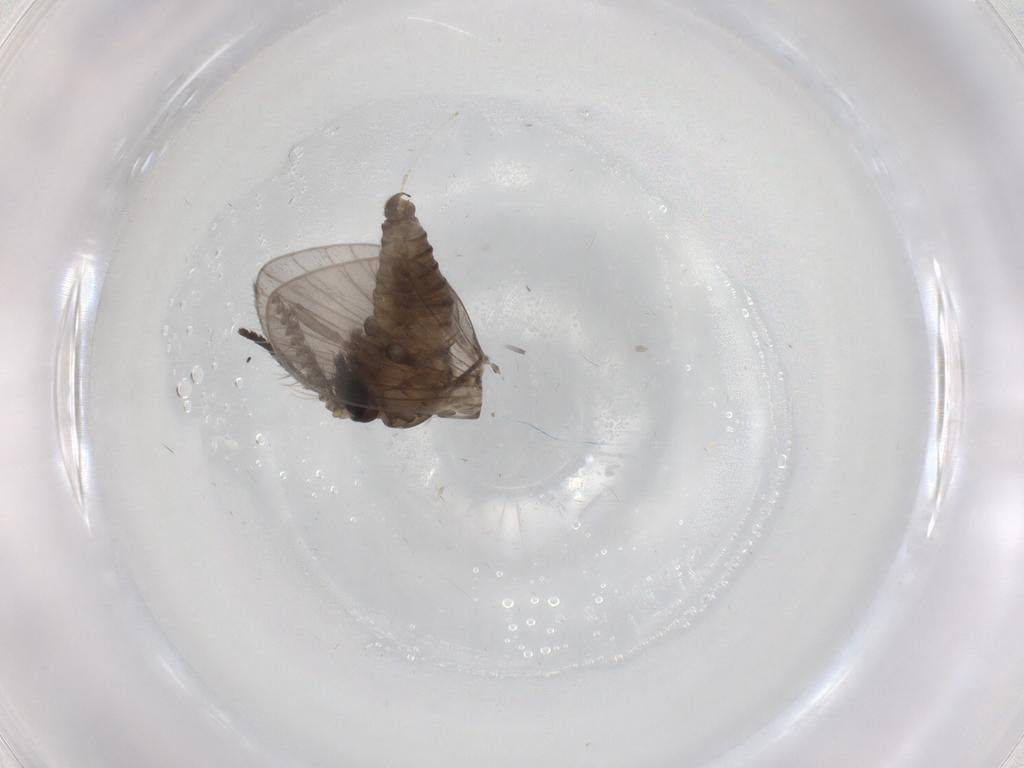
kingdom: Animalia
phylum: Arthropoda
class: Insecta
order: Diptera
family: Psychodidae
